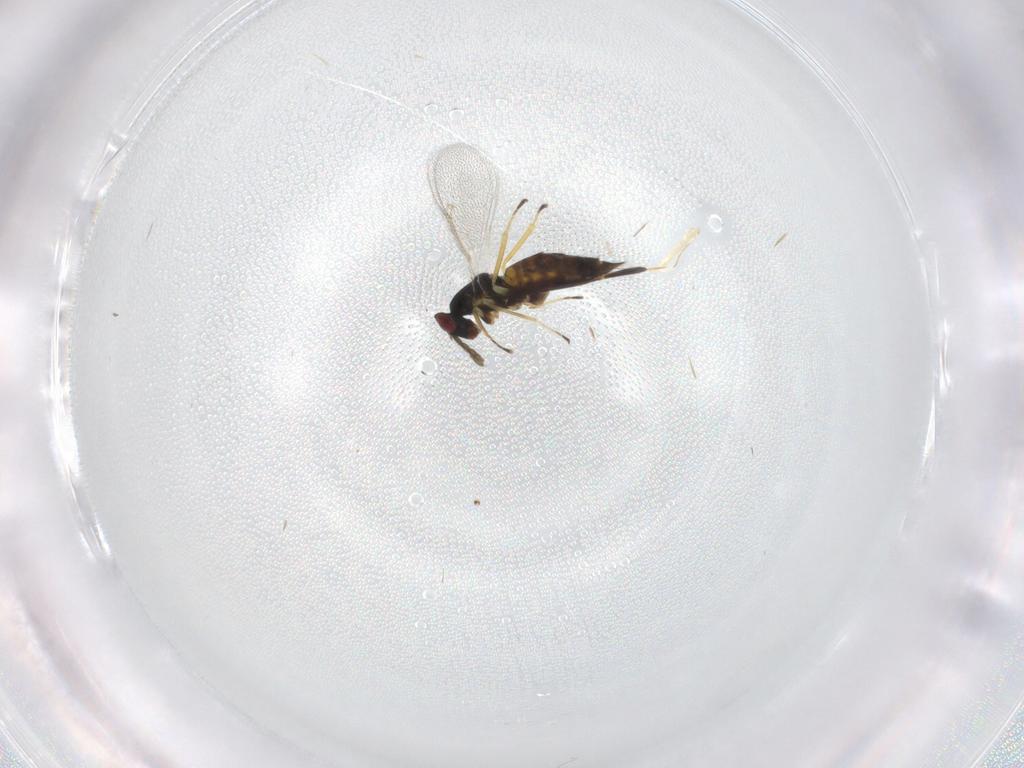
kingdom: Animalia
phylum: Arthropoda
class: Insecta
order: Hymenoptera
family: Eulophidae
